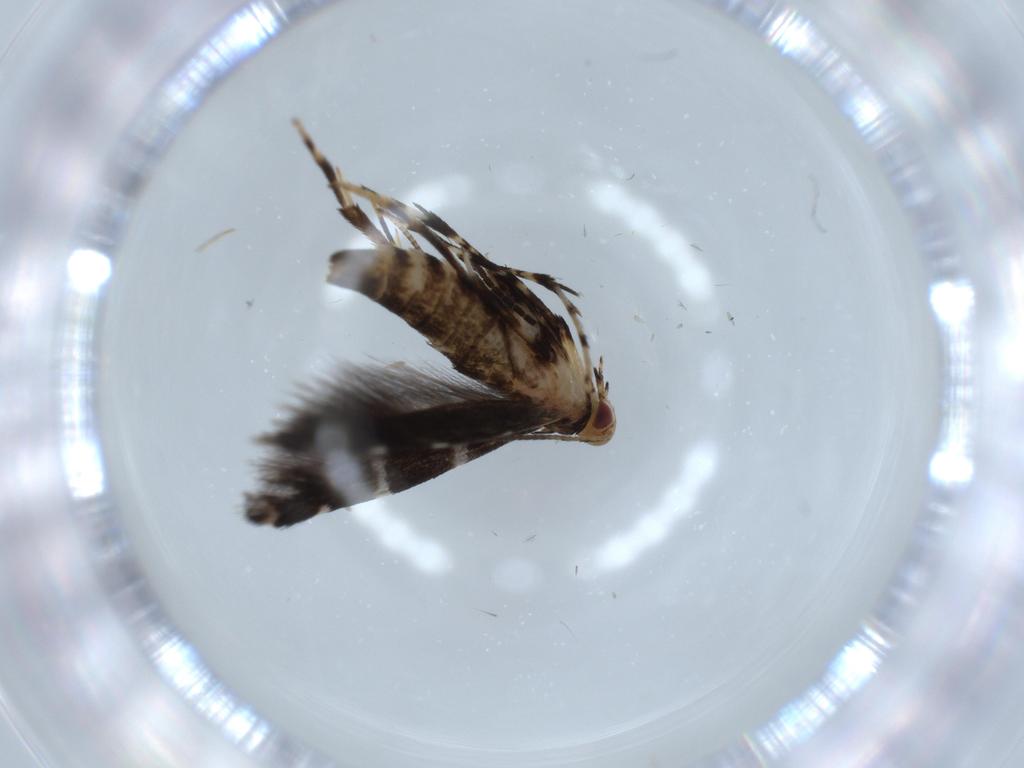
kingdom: Animalia
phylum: Arthropoda
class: Insecta
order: Lepidoptera
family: Gracillariidae
